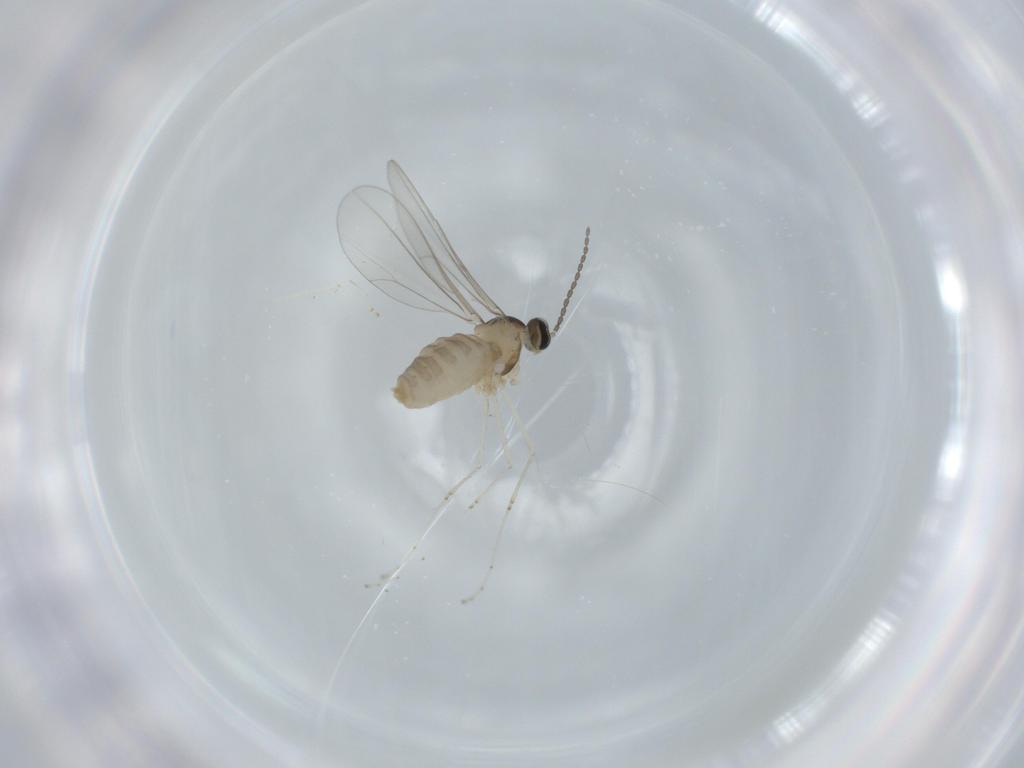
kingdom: Animalia
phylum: Arthropoda
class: Insecta
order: Diptera
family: Cecidomyiidae
